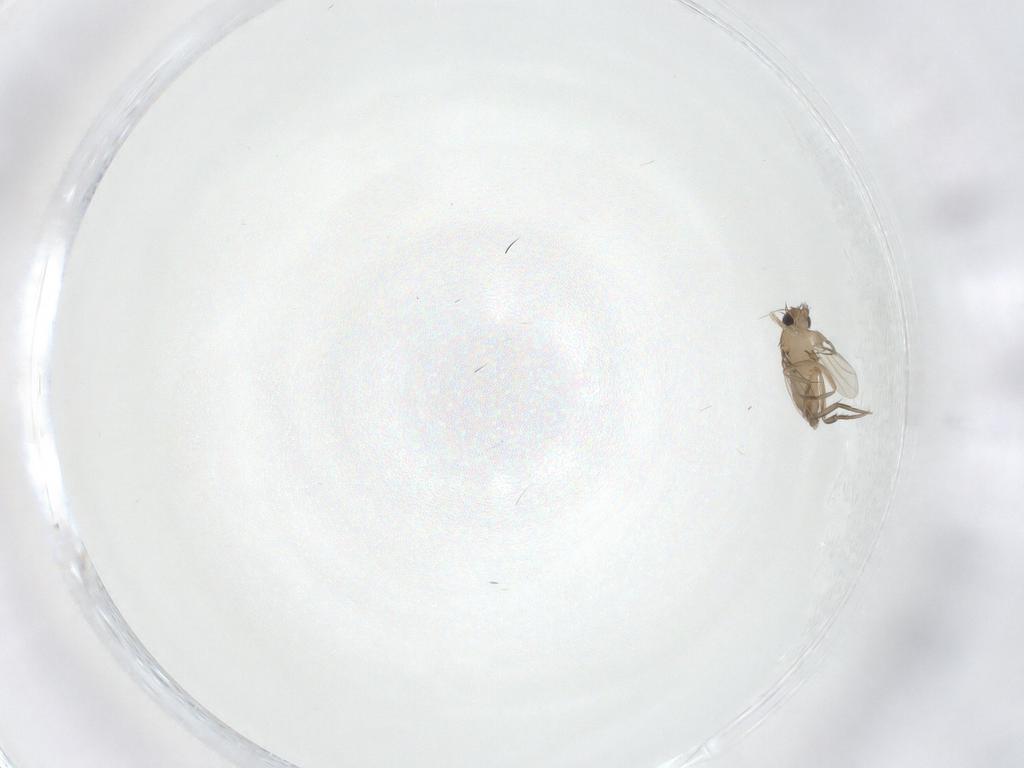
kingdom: Animalia
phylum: Arthropoda
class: Insecta
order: Diptera
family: Phoridae
